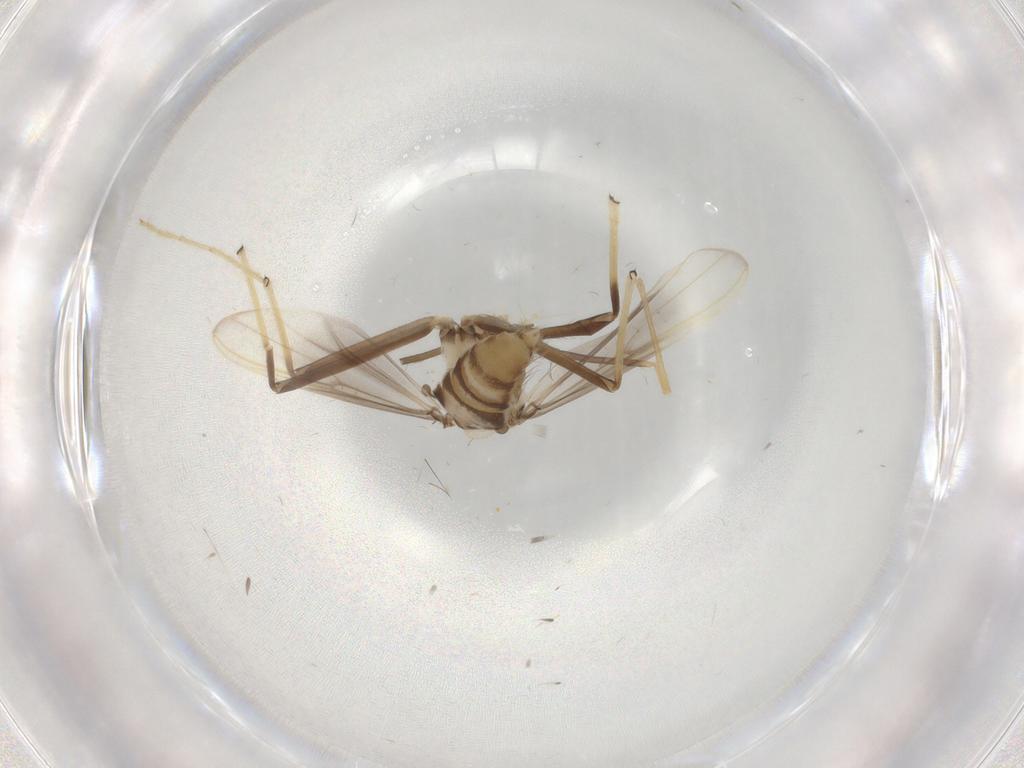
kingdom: Animalia
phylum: Arthropoda
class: Insecta
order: Diptera
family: Chironomidae
